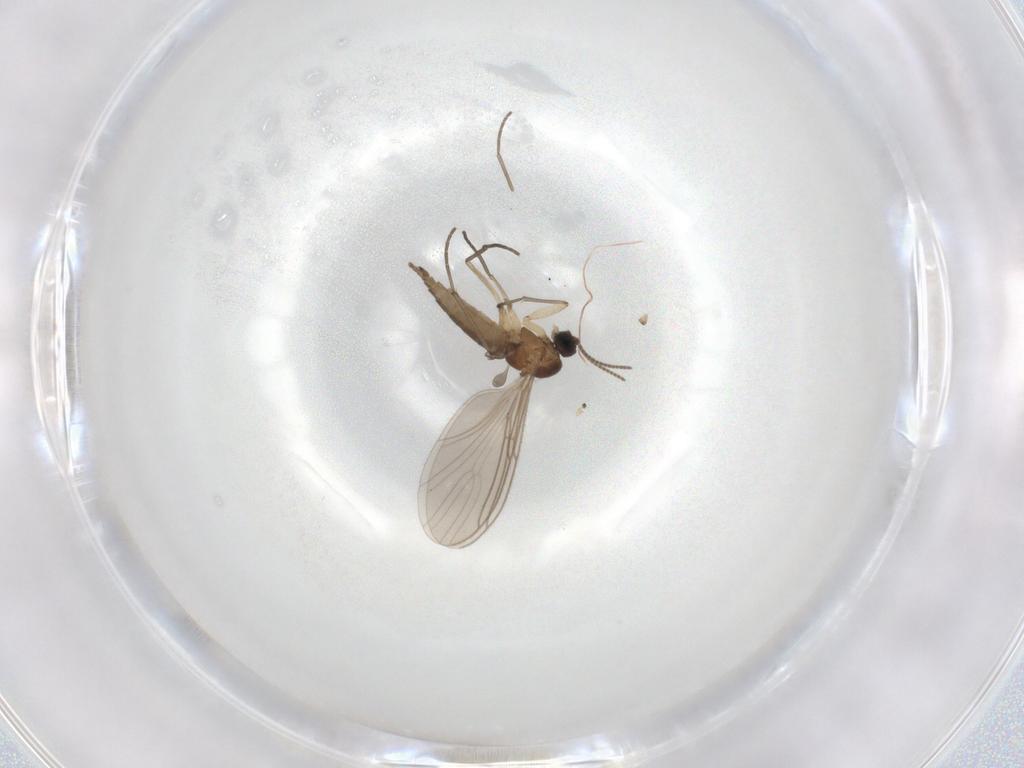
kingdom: Animalia
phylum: Arthropoda
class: Insecta
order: Diptera
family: Sciaridae
